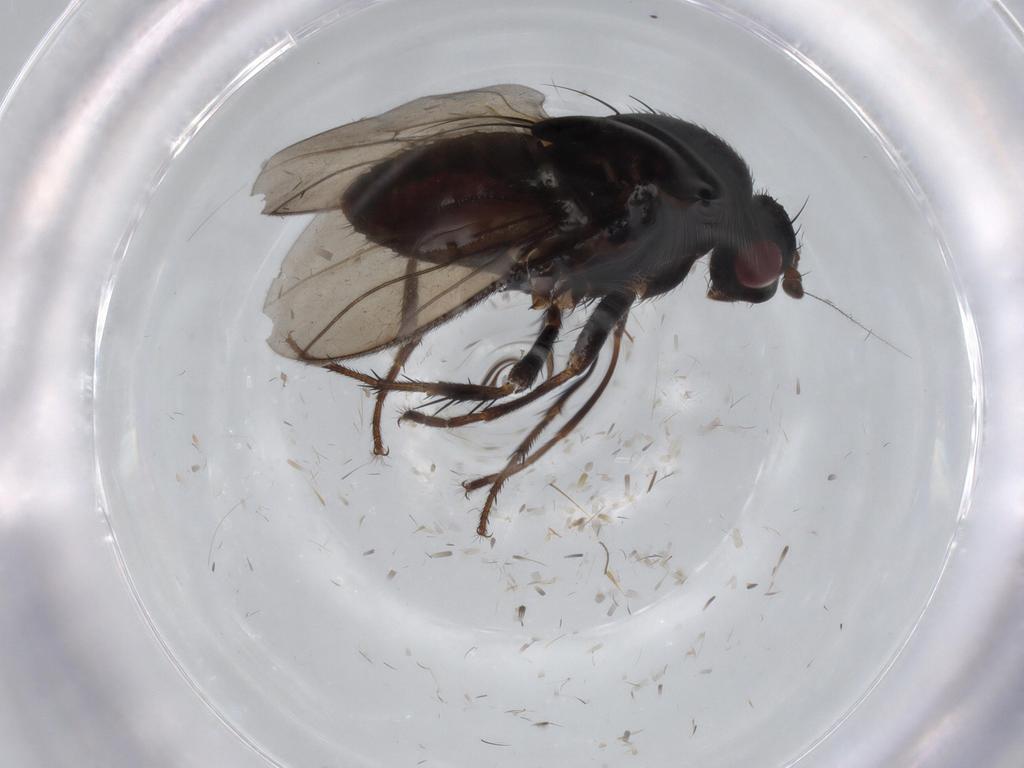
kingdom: Animalia
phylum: Arthropoda
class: Insecta
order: Diptera
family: Sphaeroceridae
